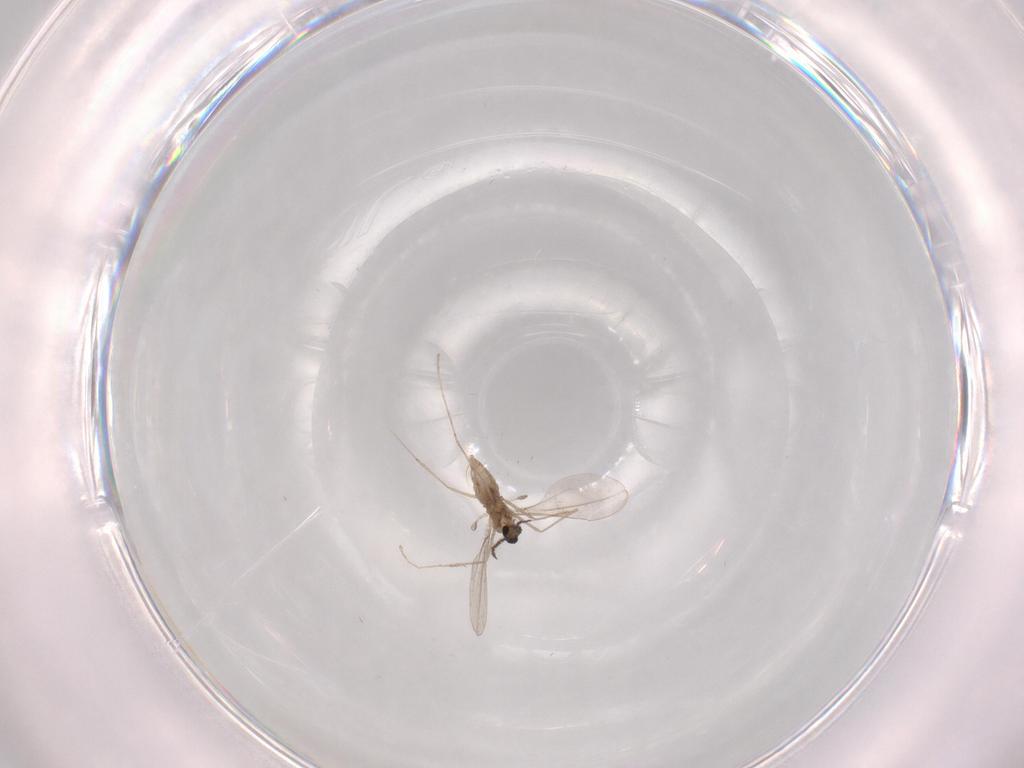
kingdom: Animalia
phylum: Arthropoda
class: Insecta
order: Diptera
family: Cecidomyiidae
